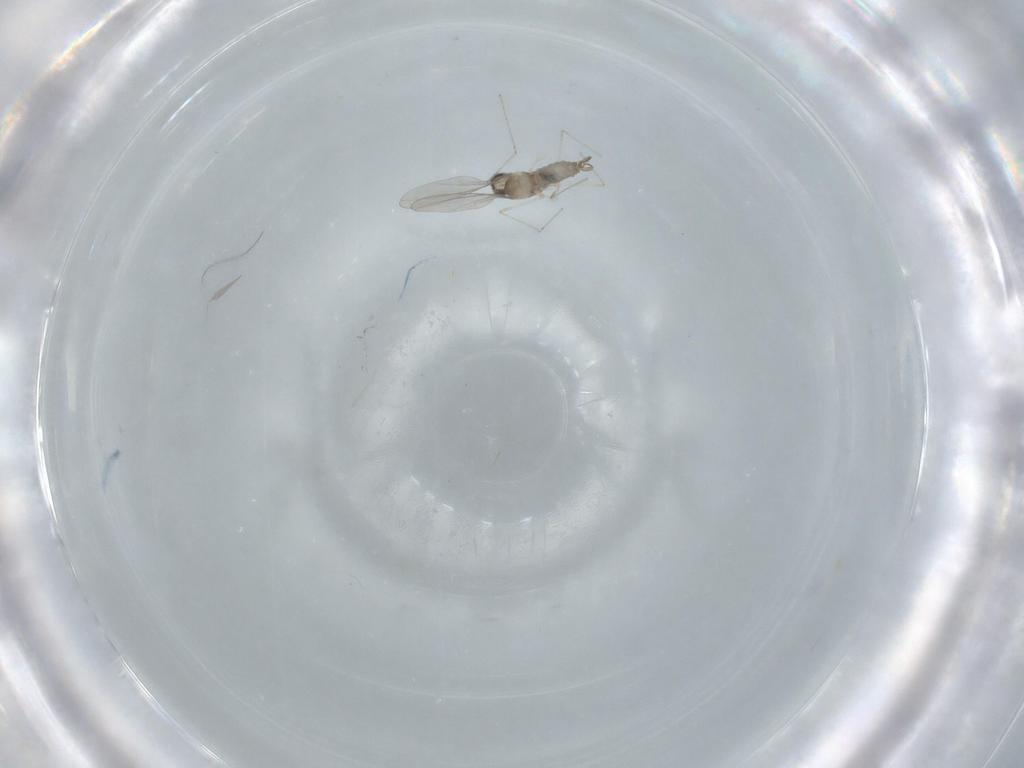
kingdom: Animalia
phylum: Arthropoda
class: Insecta
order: Diptera
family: Cecidomyiidae
